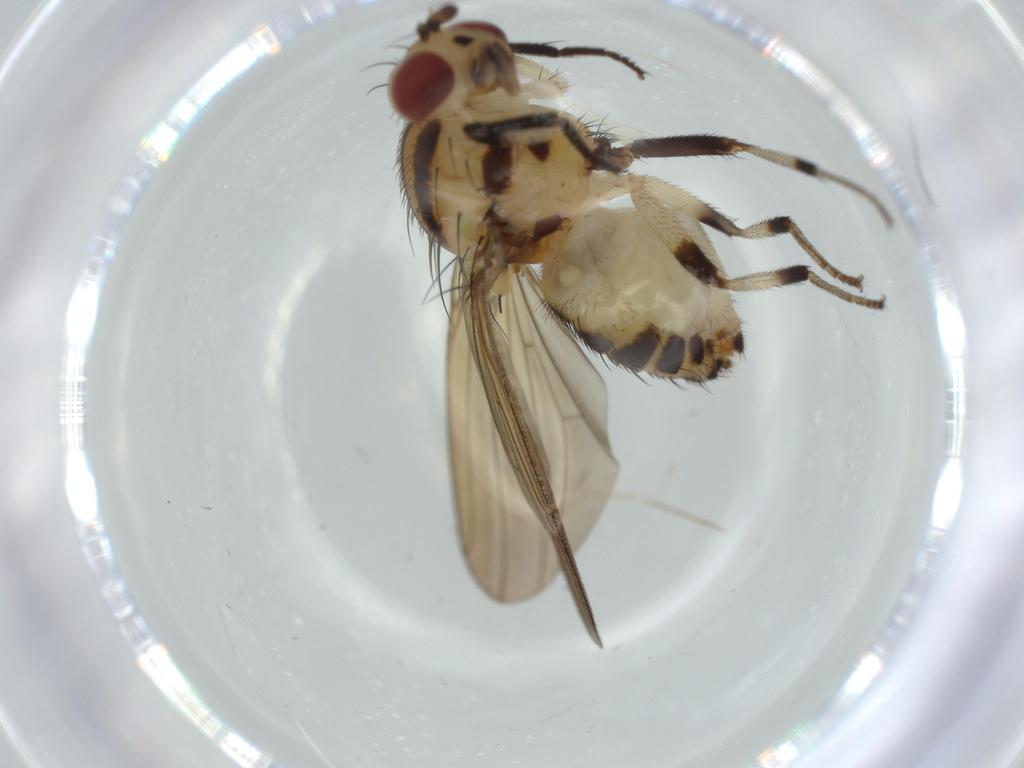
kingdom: Animalia
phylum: Arthropoda
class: Insecta
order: Diptera
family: Lauxaniidae
